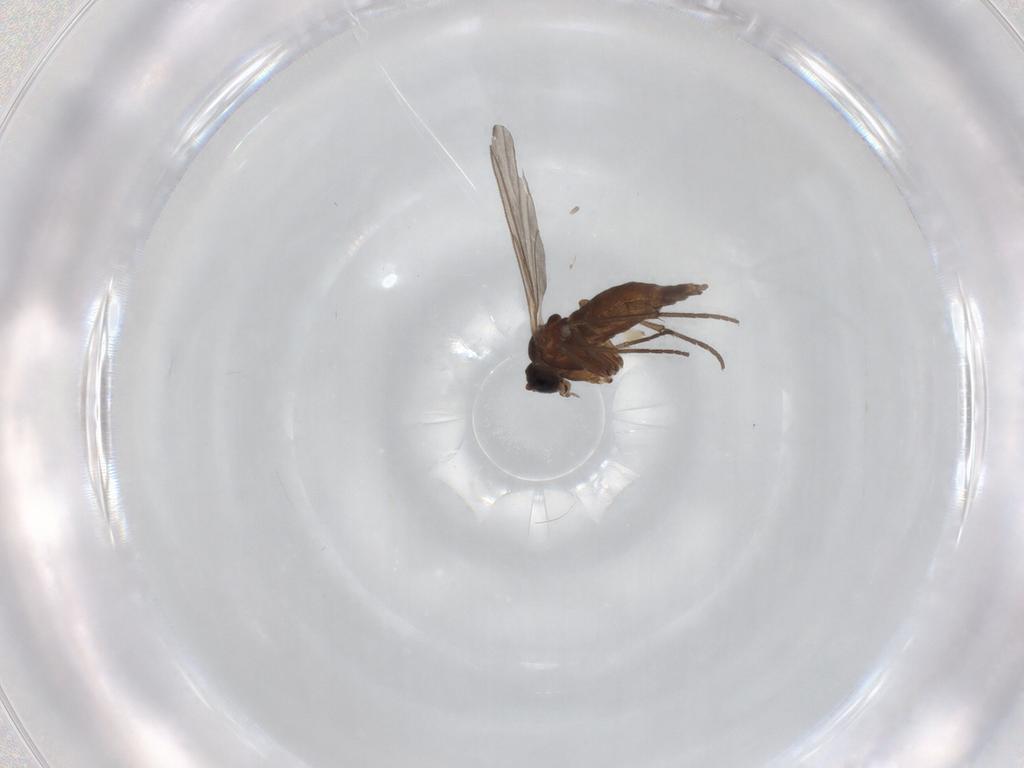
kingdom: Animalia
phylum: Arthropoda
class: Insecta
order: Diptera
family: Sciaridae
